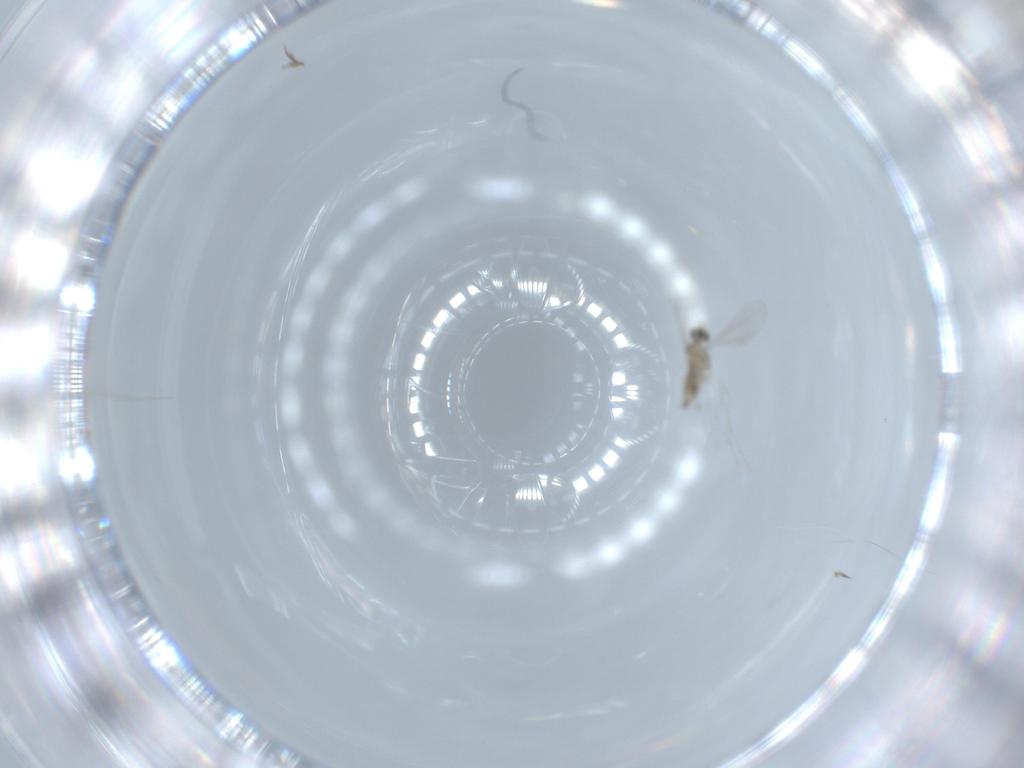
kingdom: Animalia
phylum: Arthropoda
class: Insecta
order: Diptera
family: Cecidomyiidae
